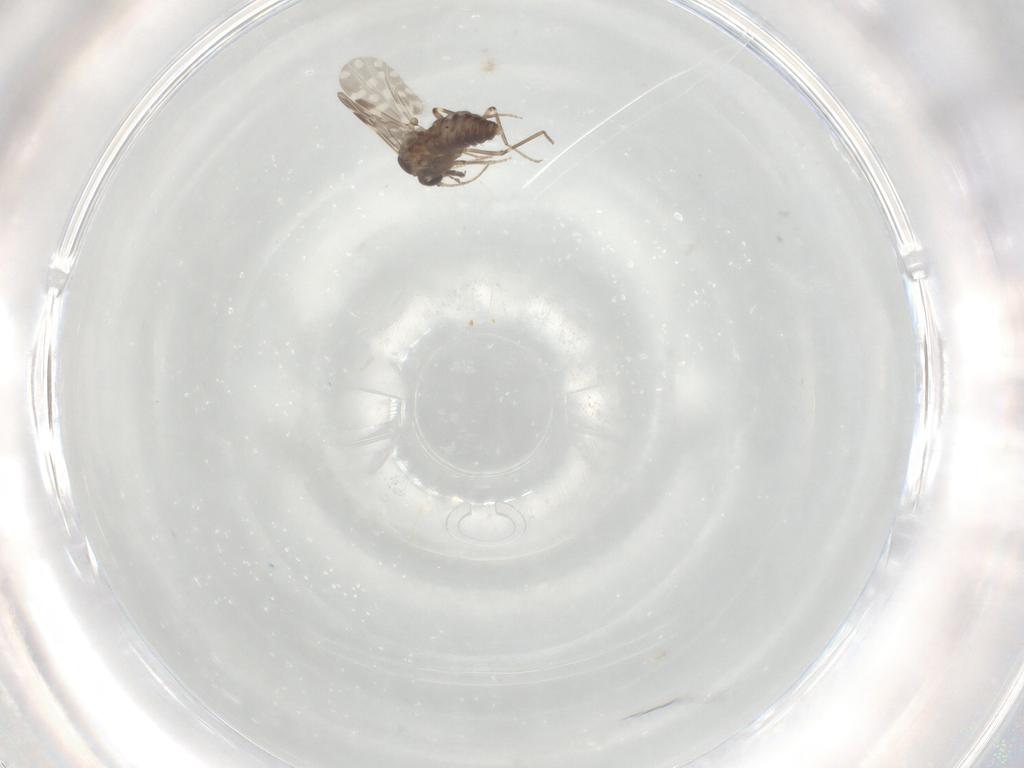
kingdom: Animalia
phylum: Arthropoda
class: Insecta
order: Diptera
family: Ceratopogonidae
